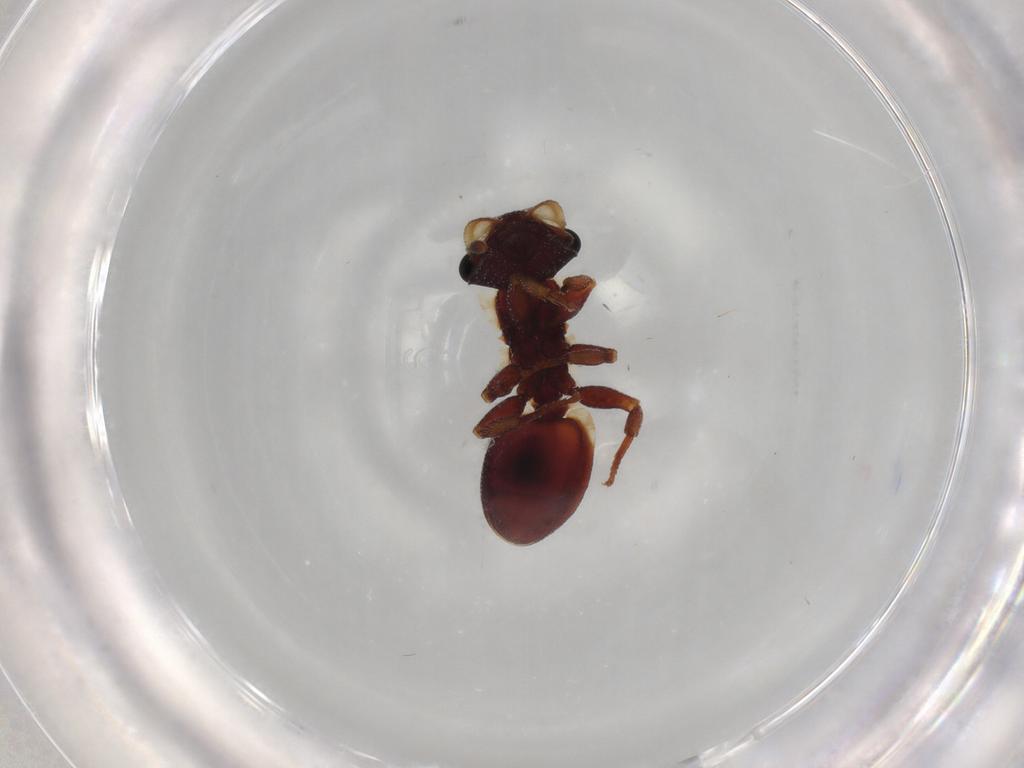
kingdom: Animalia
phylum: Arthropoda
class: Insecta
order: Hymenoptera
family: Formicidae
